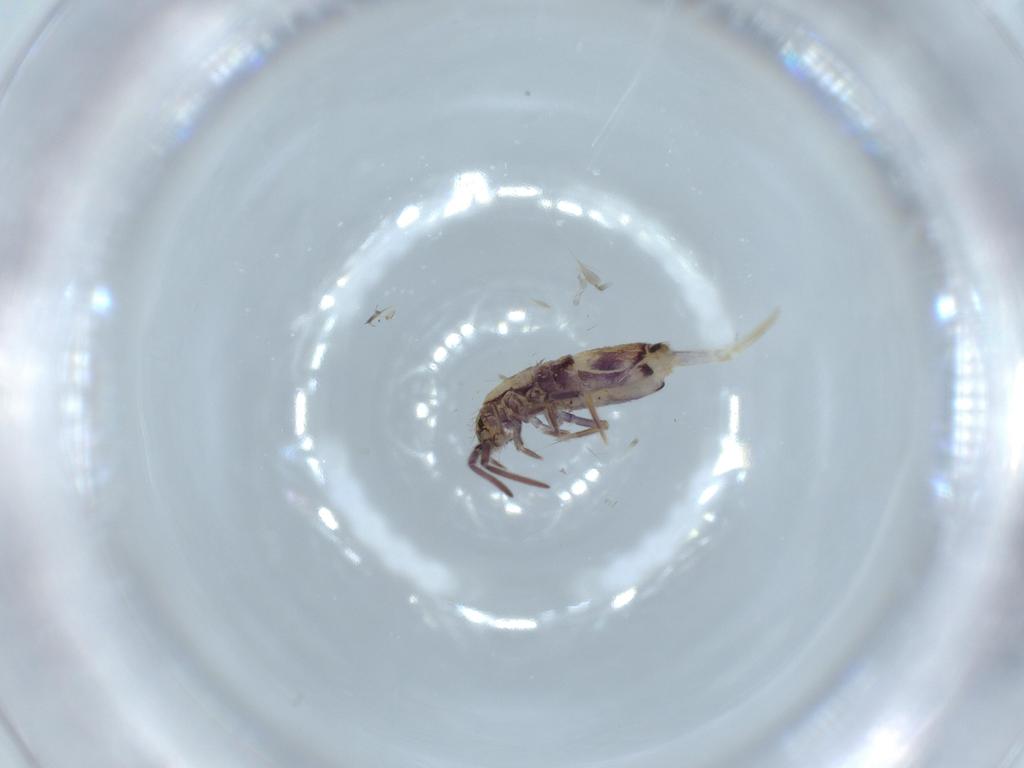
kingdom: Animalia
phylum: Arthropoda
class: Collembola
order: Entomobryomorpha
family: Entomobryidae
